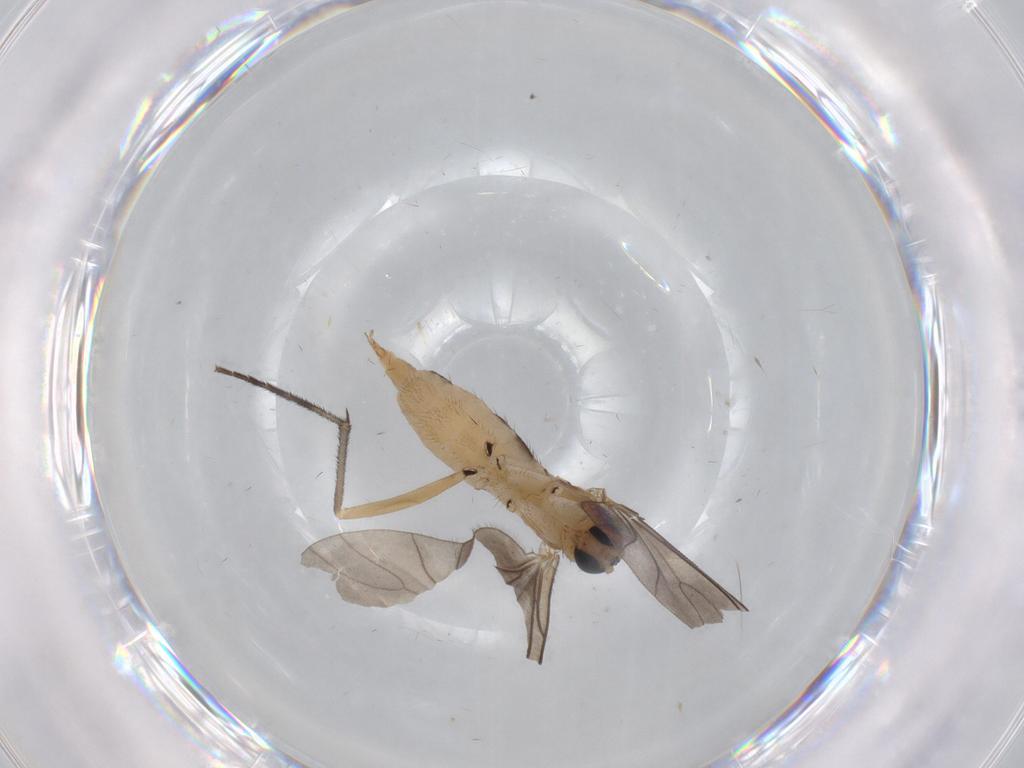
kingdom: Animalia
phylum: Arthropoda
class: Insecta
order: Diptera
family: Sciaridae
